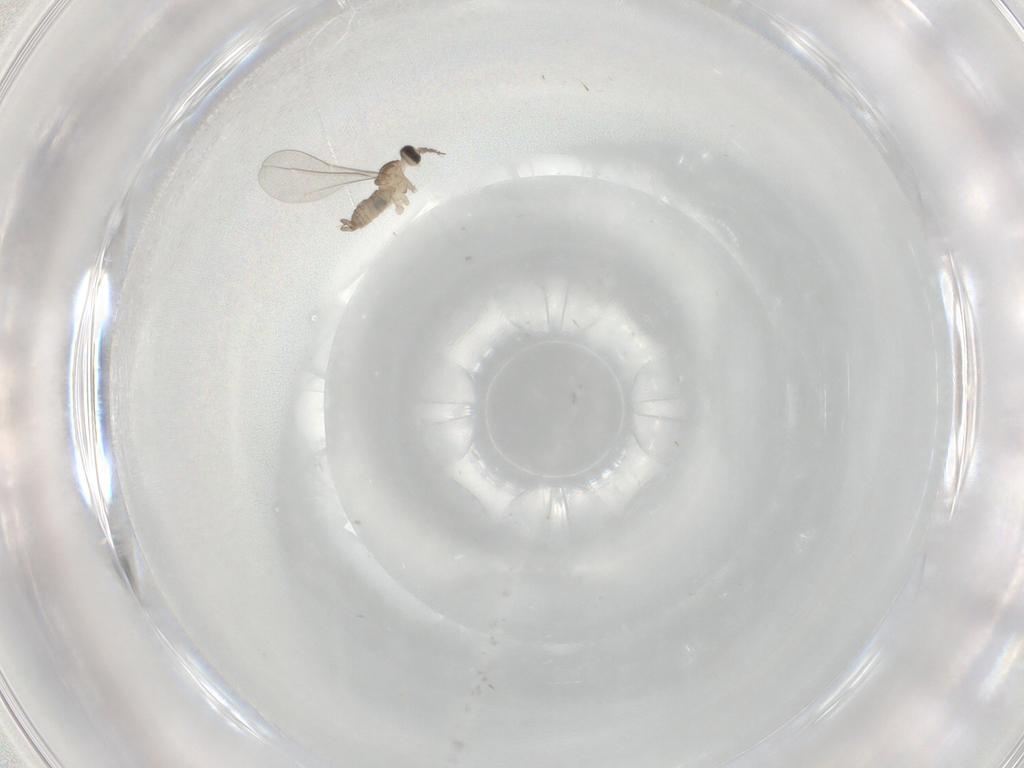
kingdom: Animalia
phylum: Arthropoda
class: Insecta
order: Diptera
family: Cecidomyiidae
